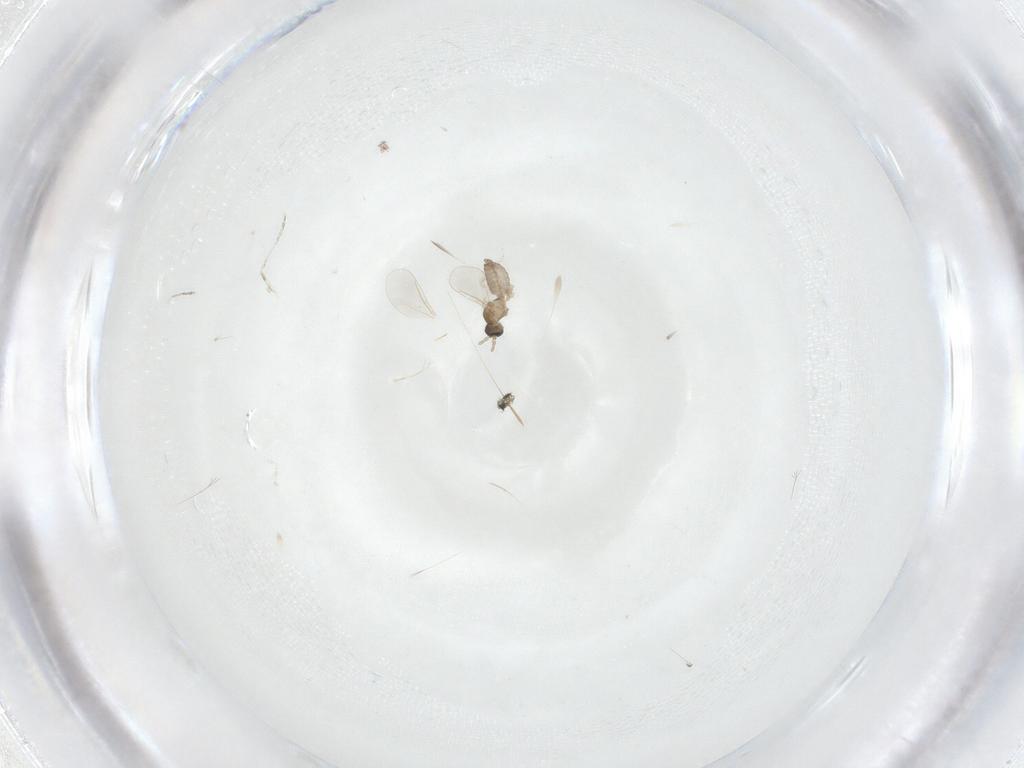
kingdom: Animalia
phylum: Arthropoda
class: Insecta
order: Diptera
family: Cecidomyiidae
